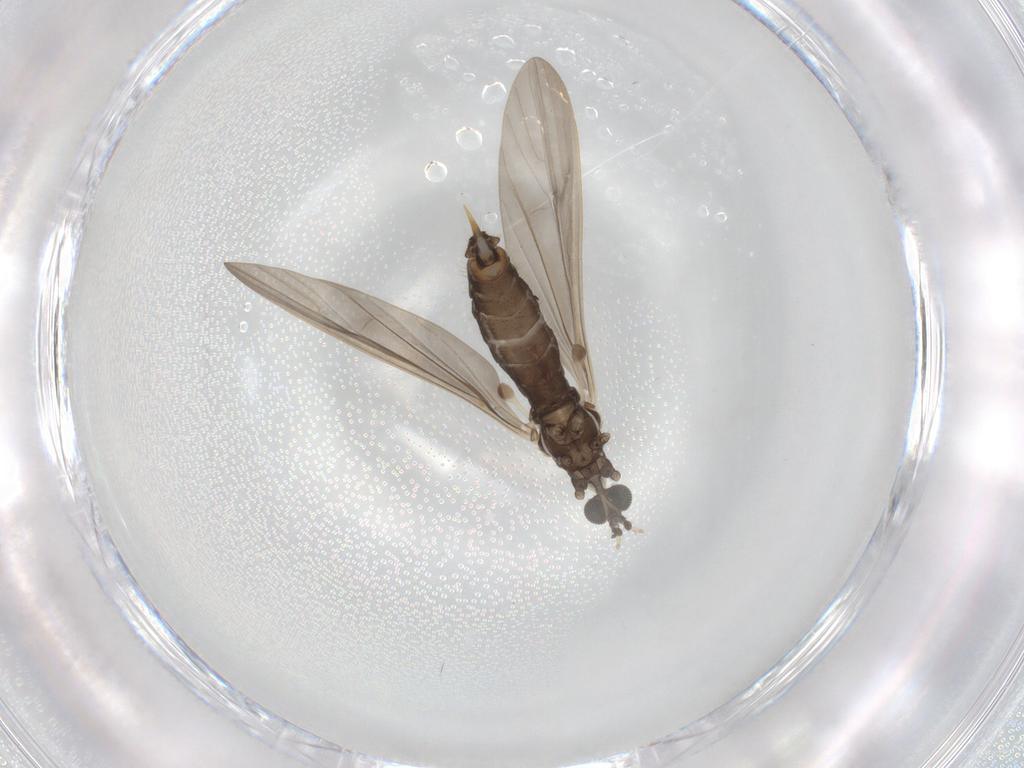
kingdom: Animalia
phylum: Arthropoda
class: Insecta
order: Diptera
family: Limoniidae
